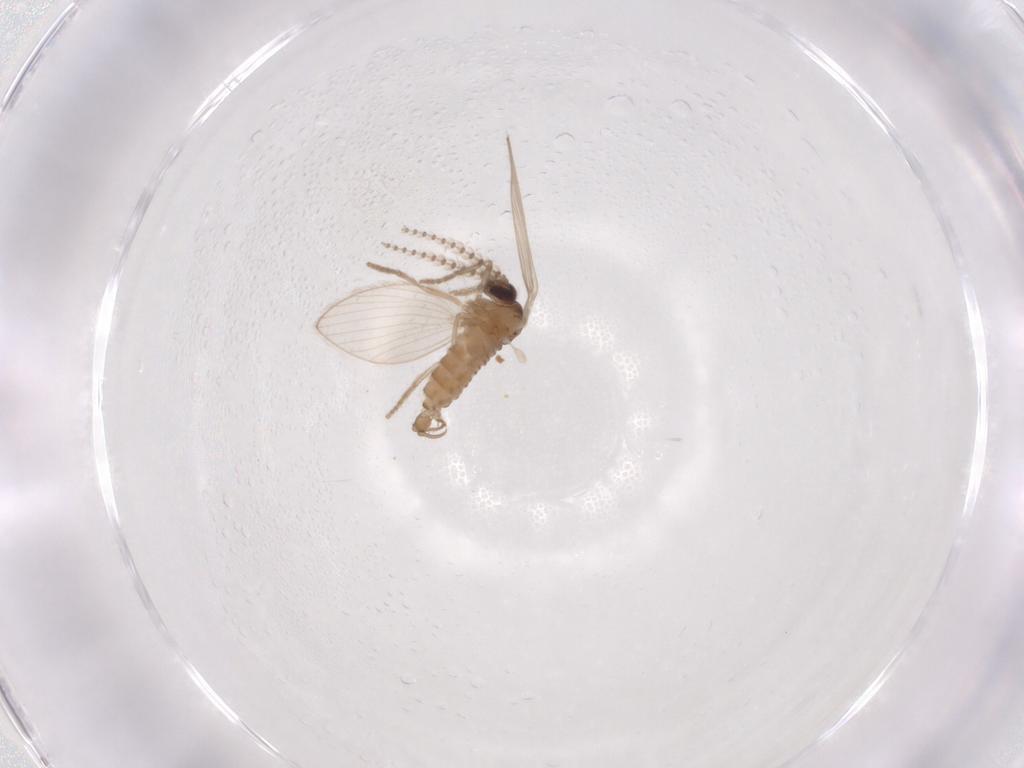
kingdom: Animalia
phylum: Arthropoda
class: Insecta
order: Diptera
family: Psychodidae
